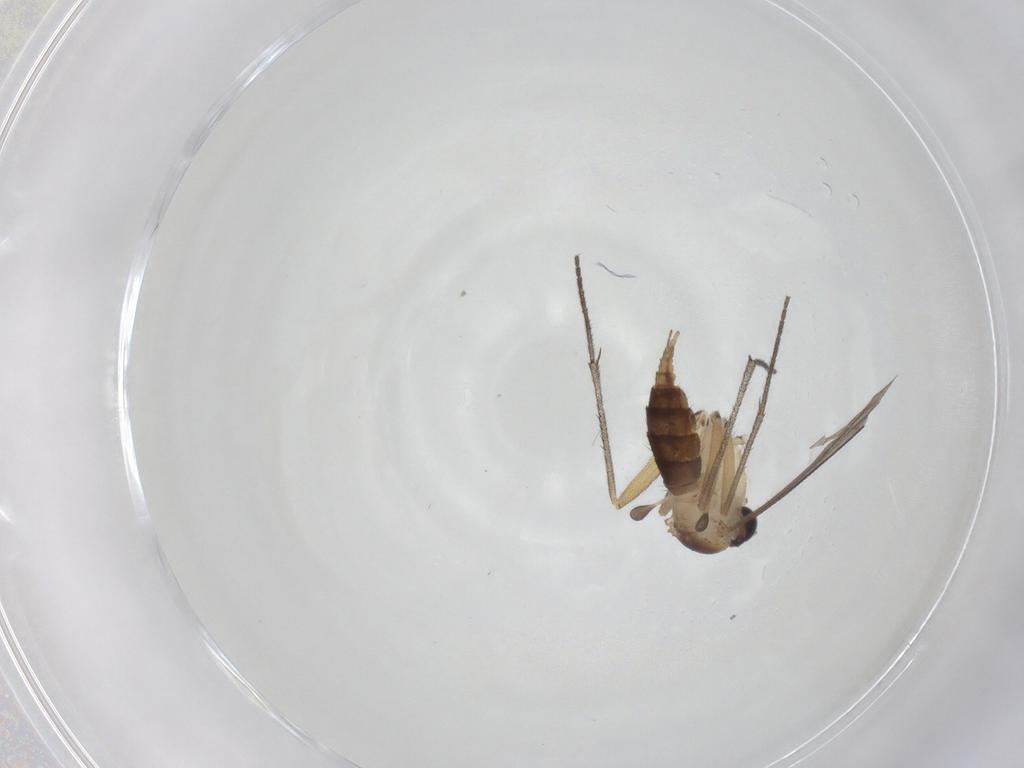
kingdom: Animalia
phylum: Arthropoda
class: Insecta
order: Diptera
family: Sciaridae
